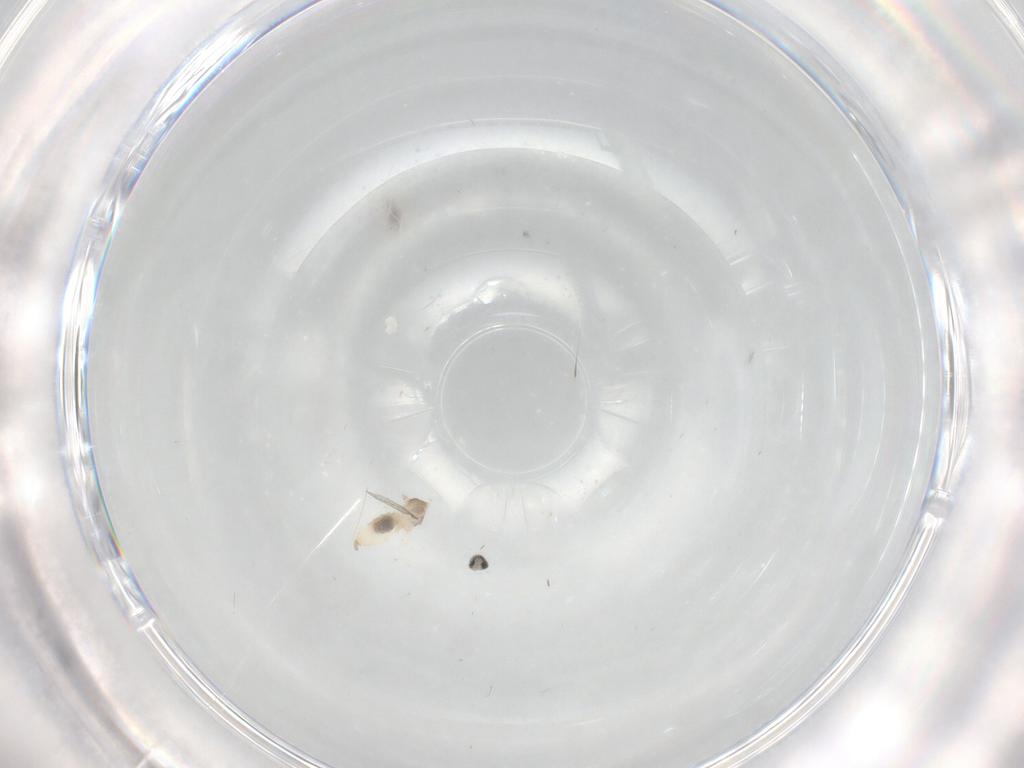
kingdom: Animalia
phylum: Arthropoda
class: Insecta
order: Diptera
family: Cecidomyiidae
